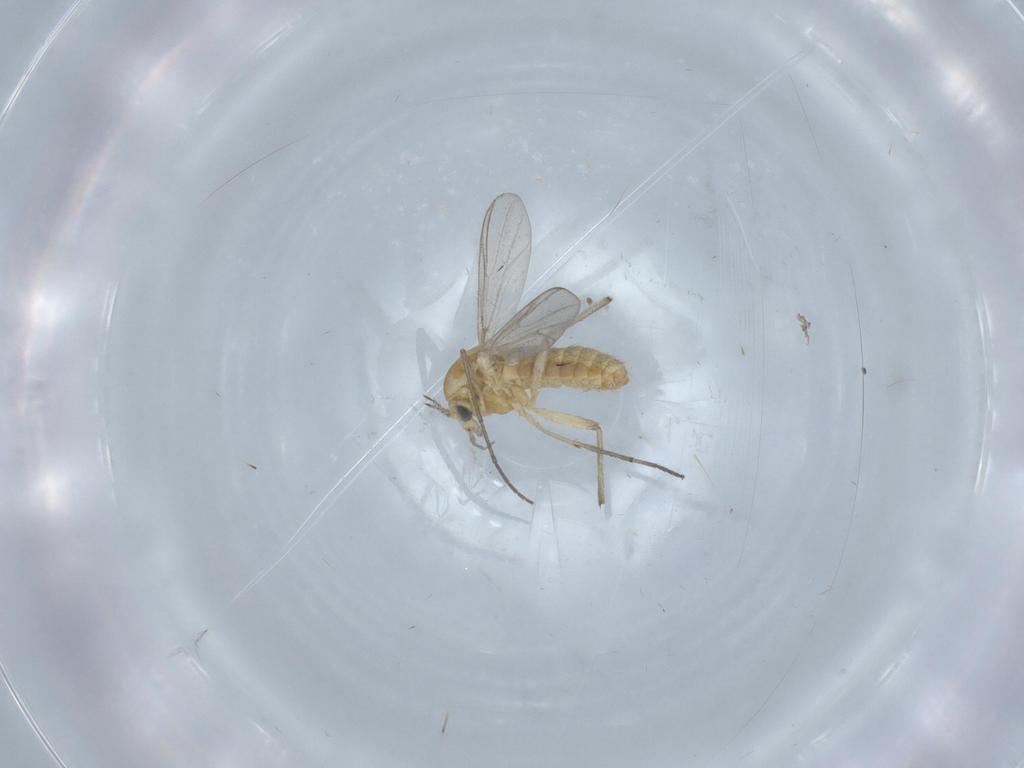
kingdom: Animalia
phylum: Arthropoda
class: Insecta
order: Diptera
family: Chironomidae
